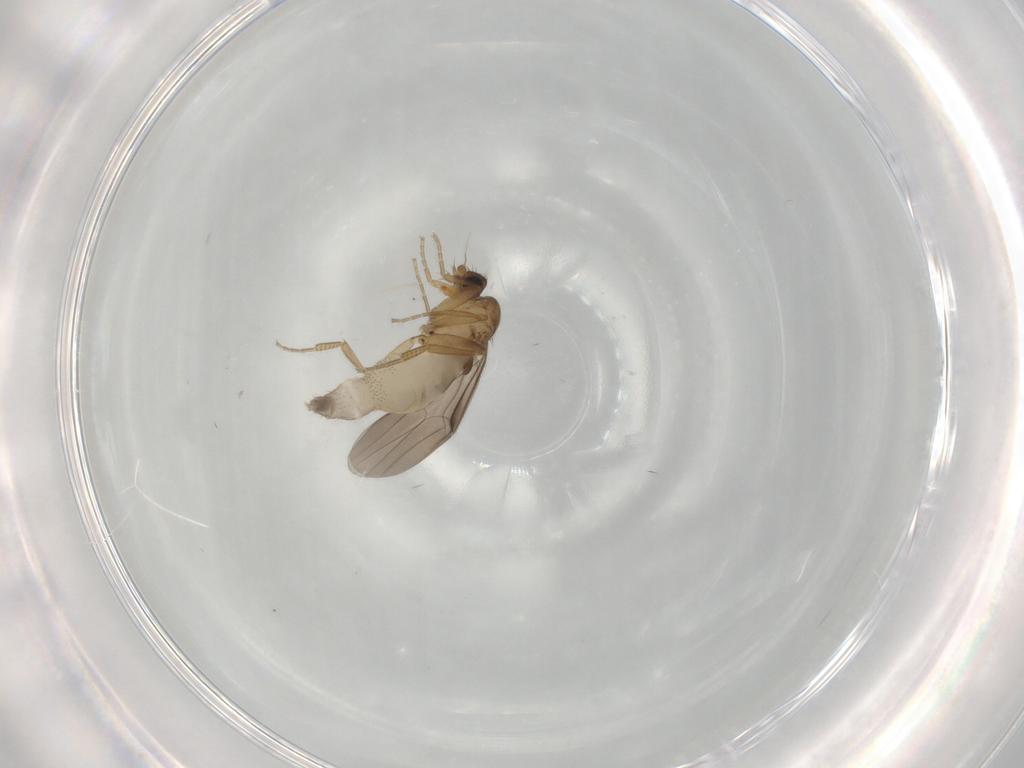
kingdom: Animalia
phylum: Arthropoda
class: Insecta
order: Diptera
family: Phoridae
